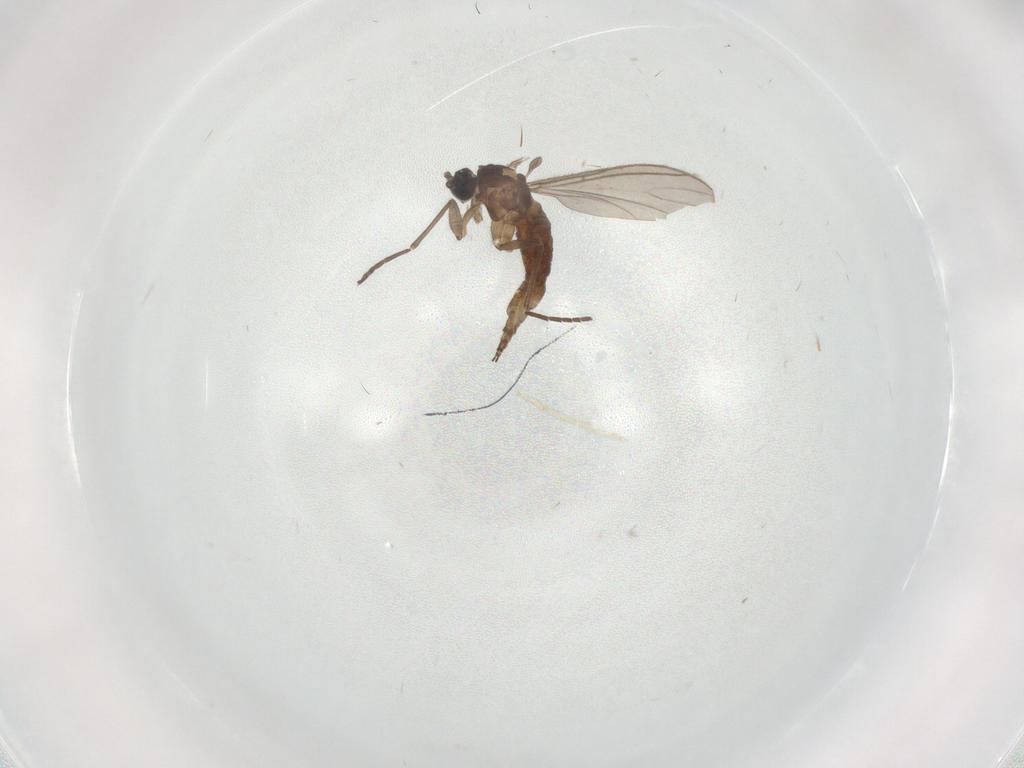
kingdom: Animalia
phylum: Arthropoda
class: Insecta
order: Diptera
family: Sciaridae
